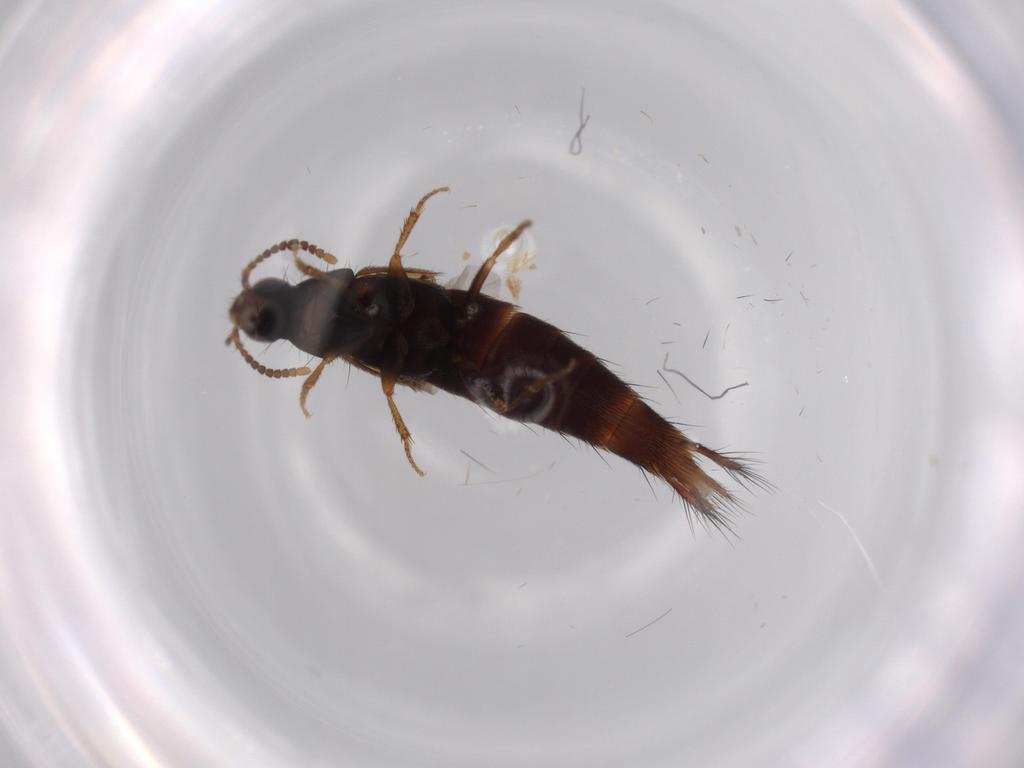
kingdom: Animalia
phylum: Arthropoda
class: Insecta
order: Coleoptera
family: Staphylinidae
